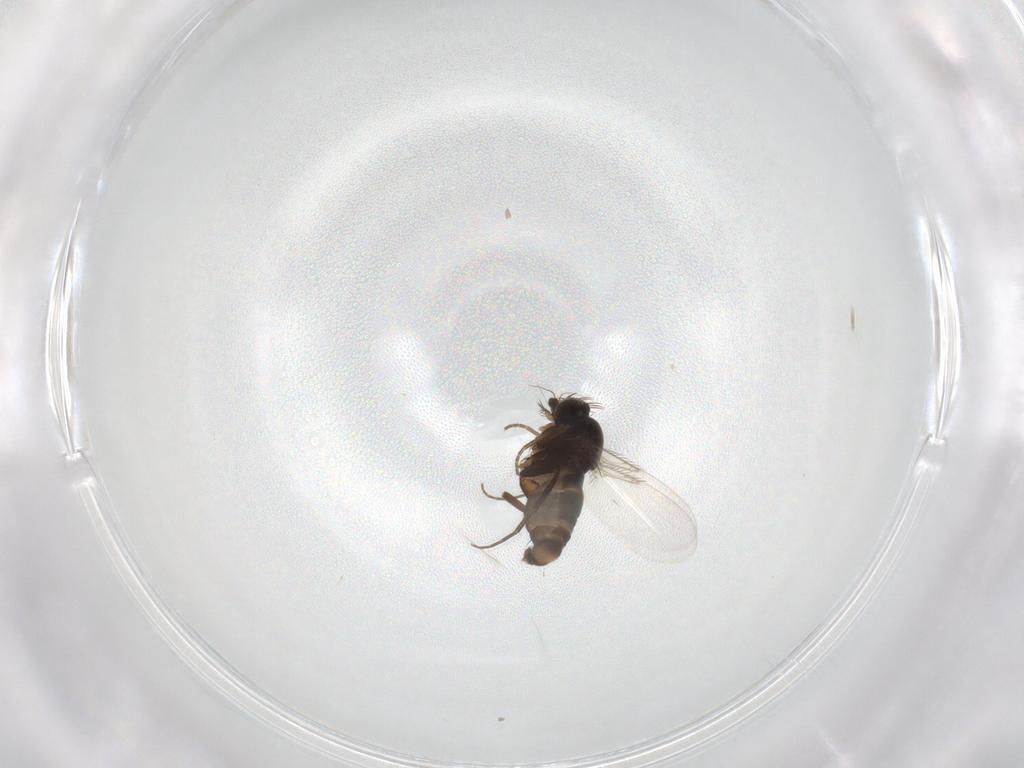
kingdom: Animalia
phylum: Arthropoda
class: Insecta
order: Diptera
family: Phoridae
